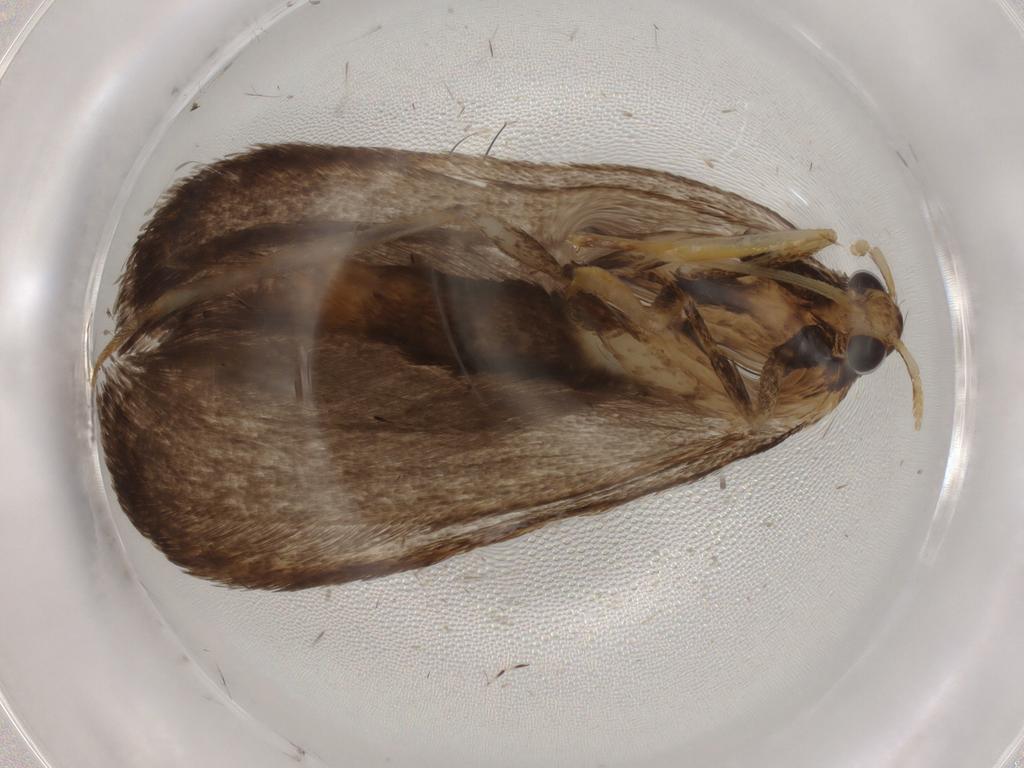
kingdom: Animalia
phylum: Arthropoda
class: Insecta
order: Lepidoptera
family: Lecithoceridae
